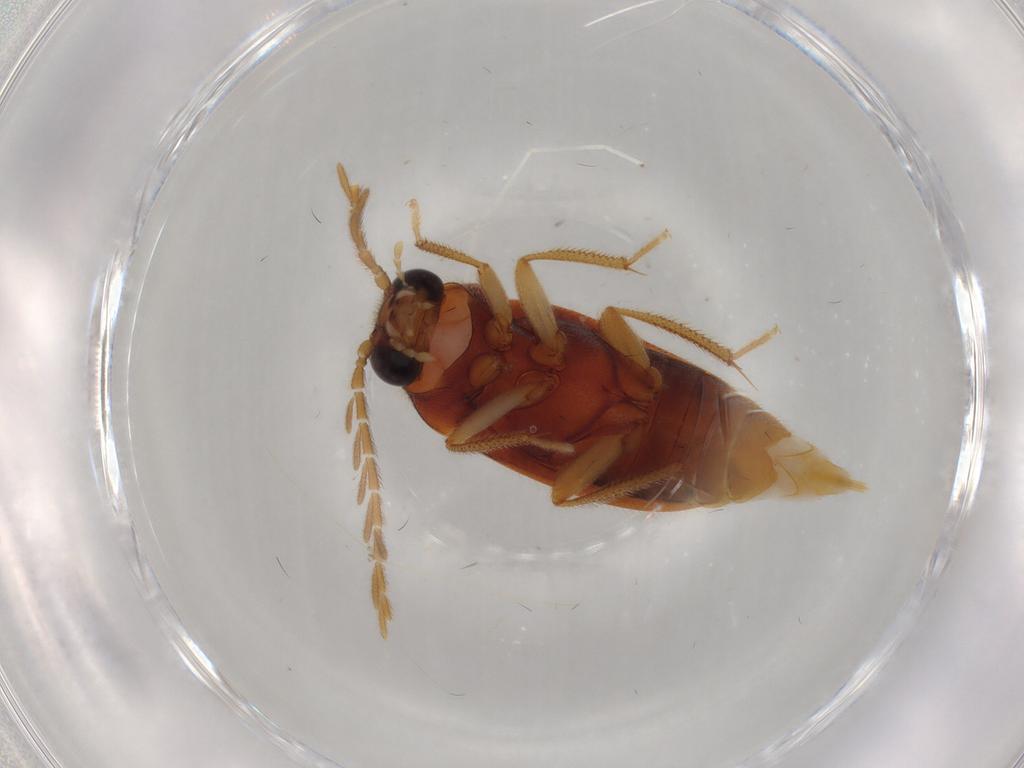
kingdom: Animalia
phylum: Arthropoda
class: Insecta
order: Coleoptera
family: Ptilodactylidae
